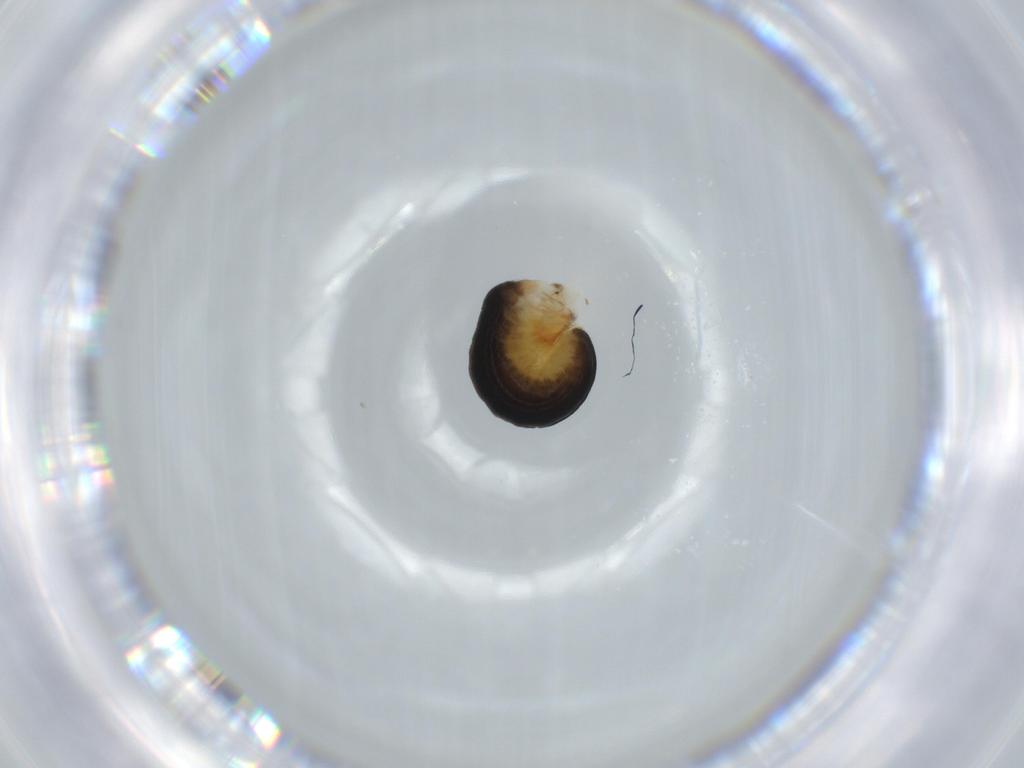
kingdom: Animalia
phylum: Arthropoda
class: Insecta
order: Hymenoptera
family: Dryinidae
